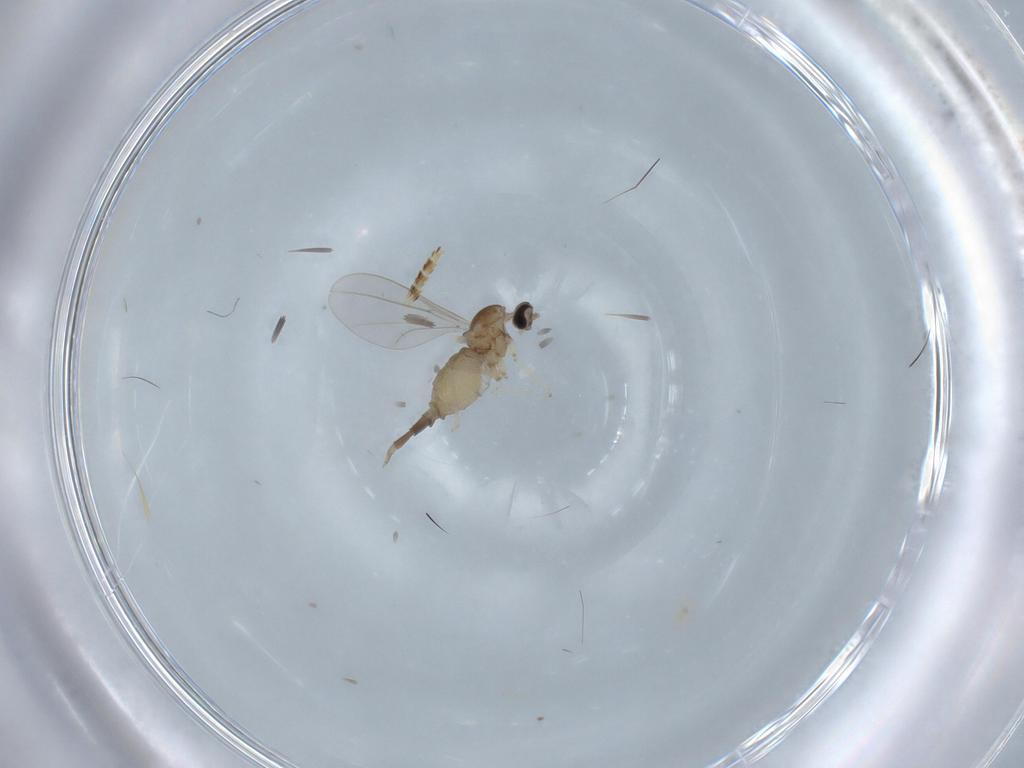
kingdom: Animalia
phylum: Arthropoda
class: Insecta
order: Diptera
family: Cecidomyiidae
